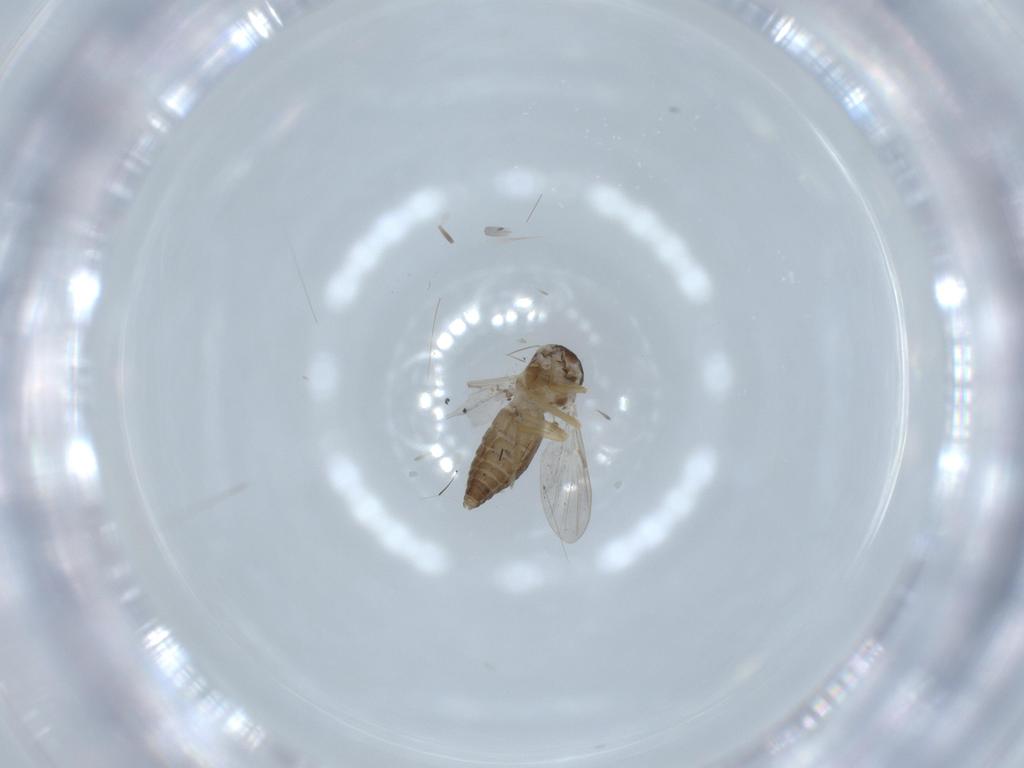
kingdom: Animalia
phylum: Arthropoda
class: Insecta
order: Diptera
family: Ceratopogonidae
